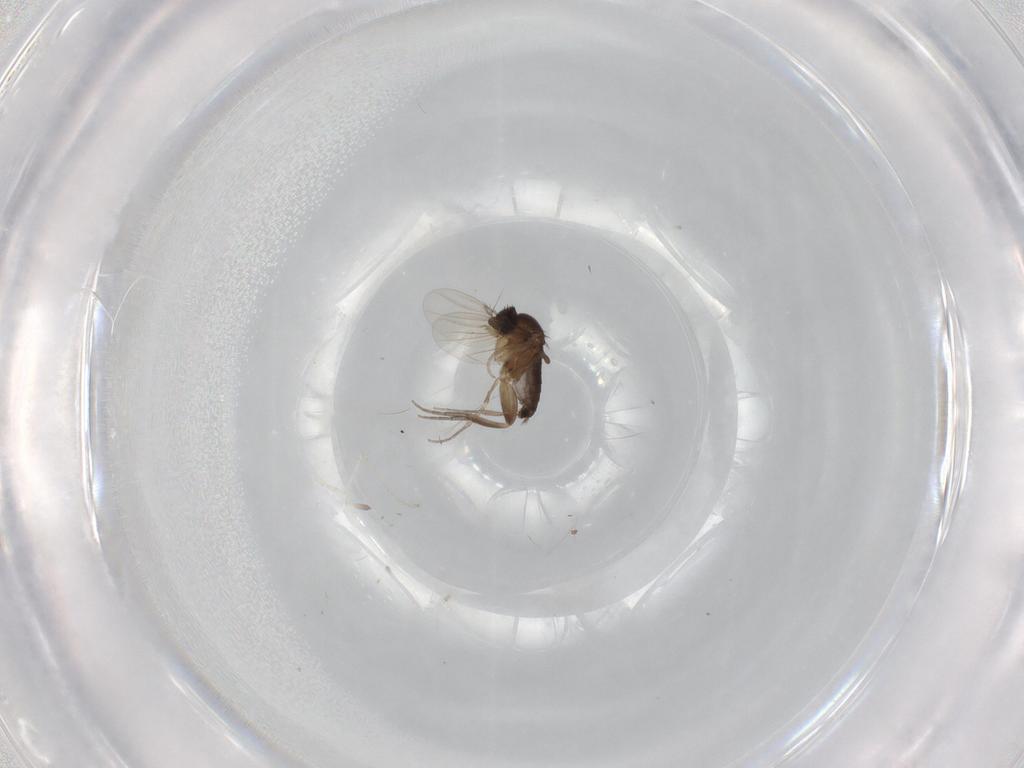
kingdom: Animalia
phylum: Arthropoda
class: Insecta
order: Diptera
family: Phoridae
